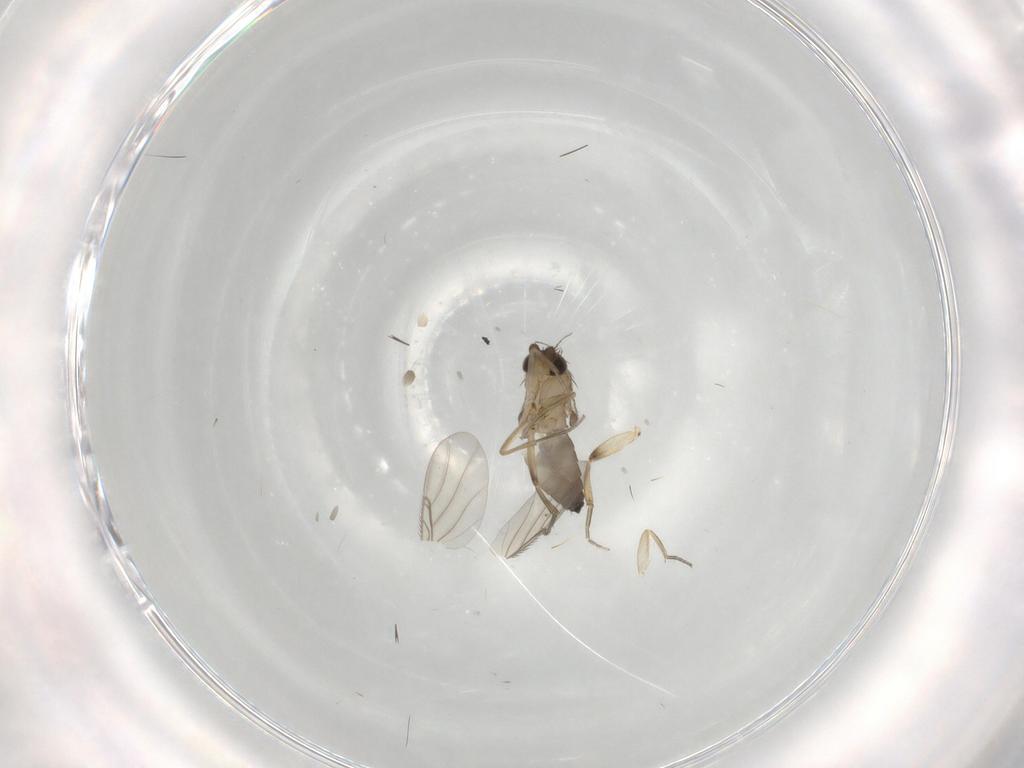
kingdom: Animalia
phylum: Arthropoda
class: Insecta
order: Diptera
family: Phoridae
